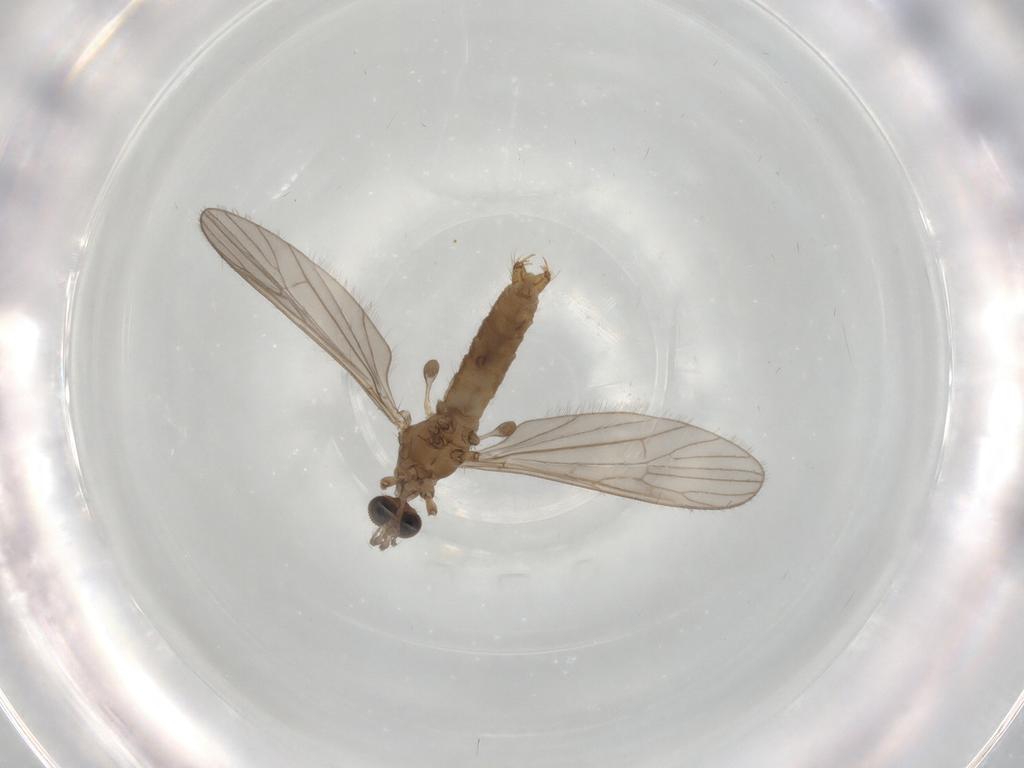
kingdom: Animalia
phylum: Arthropoda
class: Insecta
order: Diptera
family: Limoniidae
